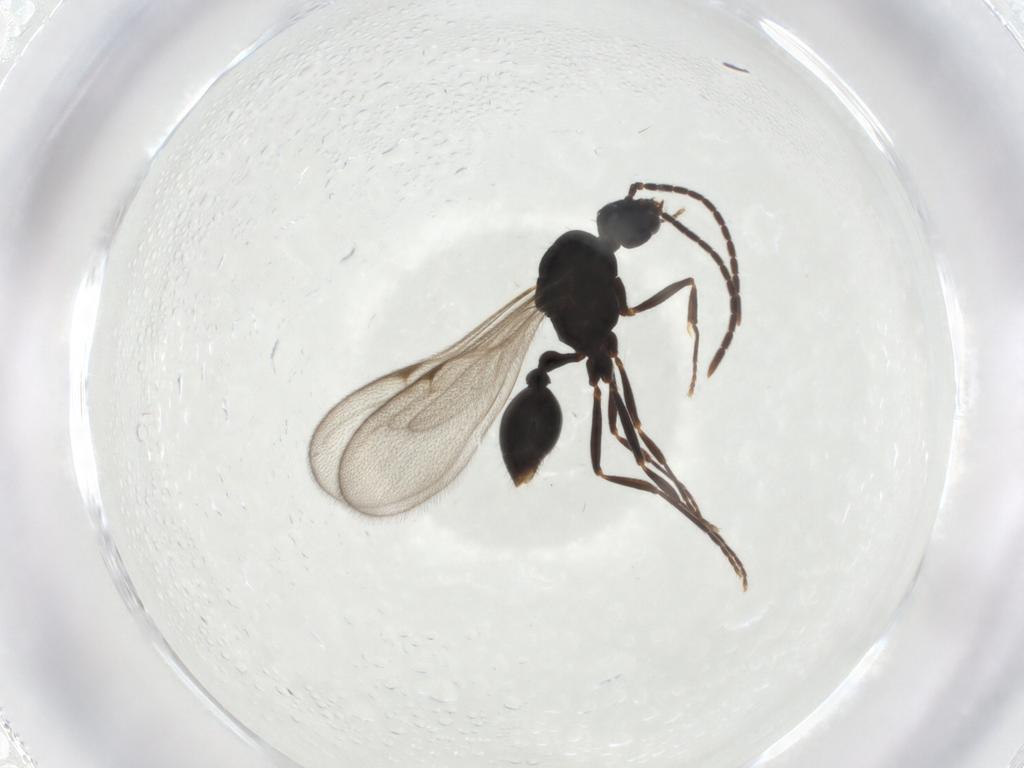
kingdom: Animalia
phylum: Arthropoda
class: Insecta
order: Hymenoptera
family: Formicidae
